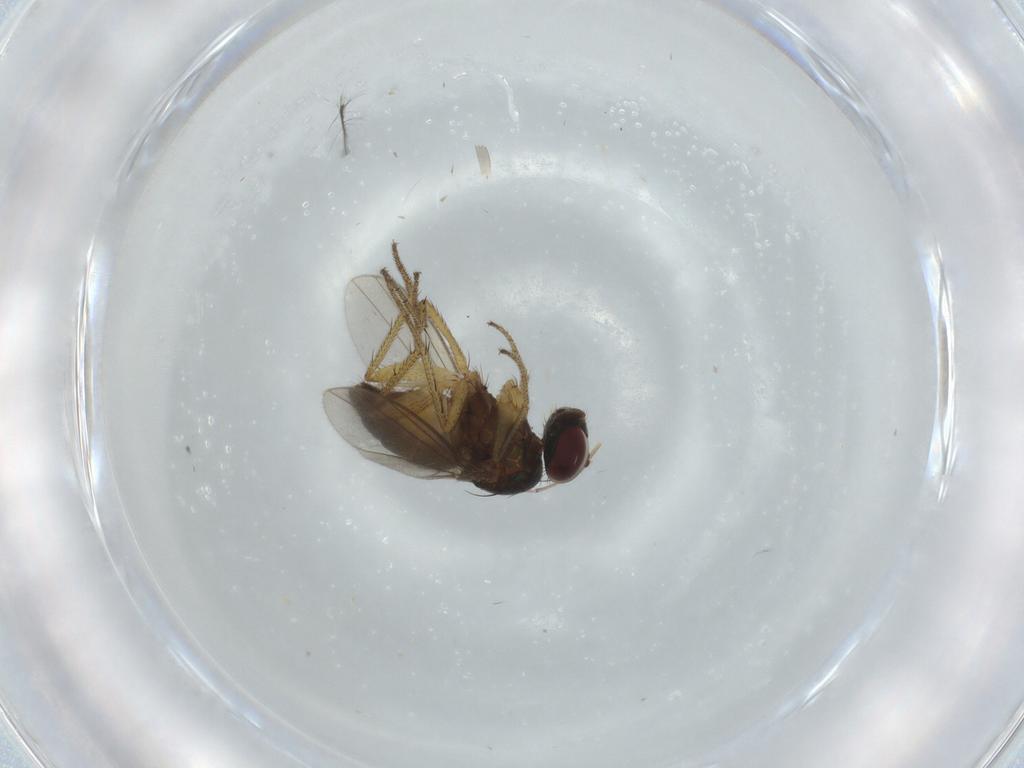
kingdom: Animalia
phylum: Arthropoda
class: Insecta
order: Diptera
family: Dolichopodidae
